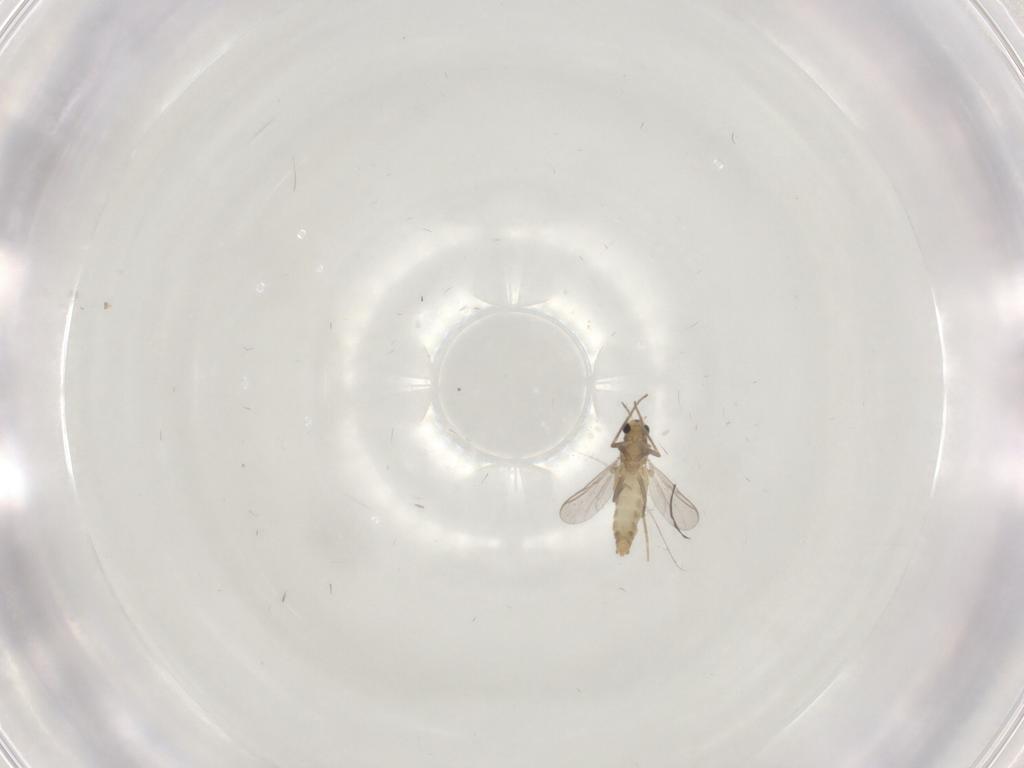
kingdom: Animalia
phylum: Arthropoda
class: Insecta
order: Diptera
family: Chironomidae
